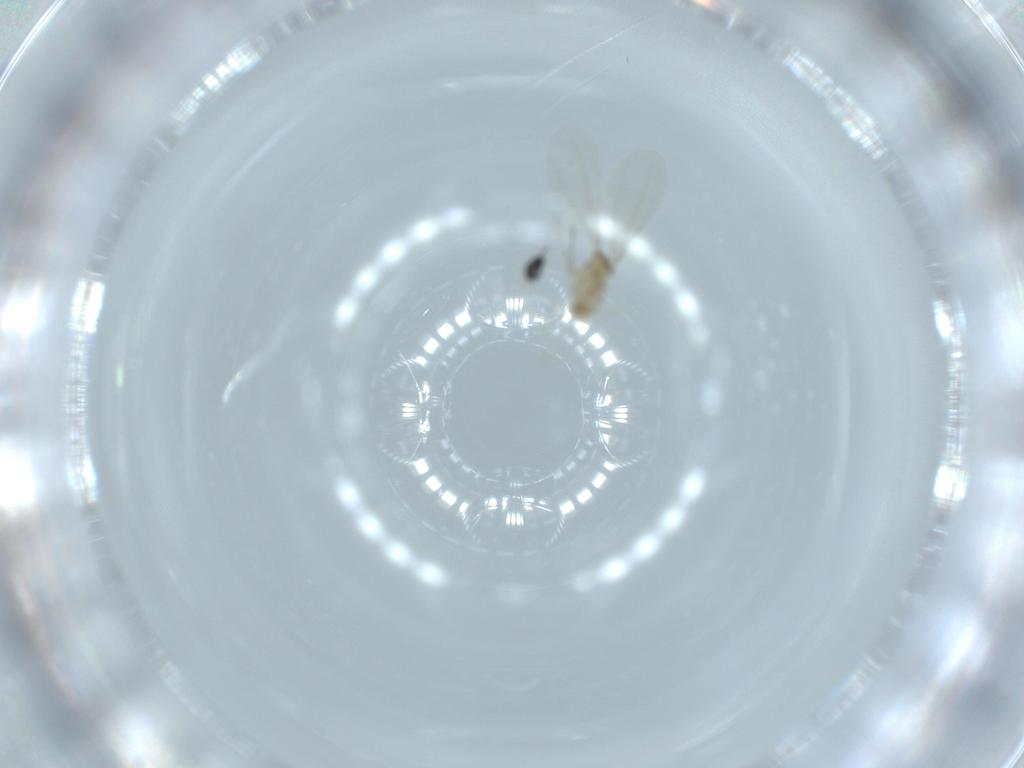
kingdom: Animalia
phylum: Arthropoda
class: Insecta
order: Diptera
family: Cecidomyiidae
